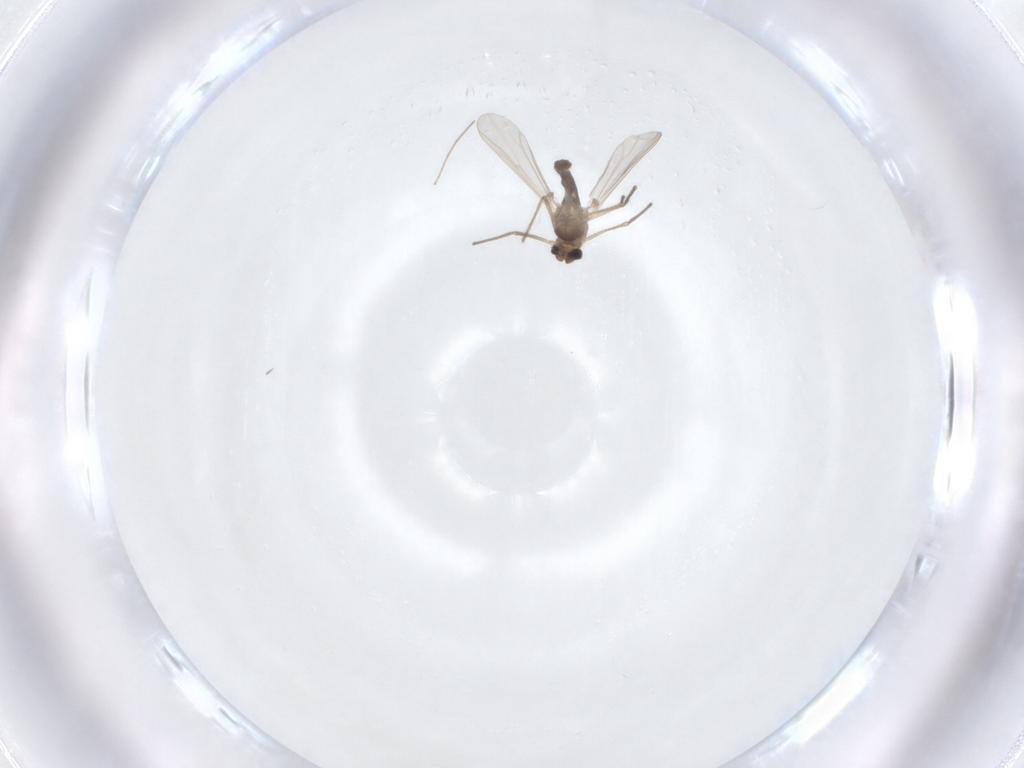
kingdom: Animalia
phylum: Arthropoda
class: Insecta
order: Diptera
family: Chironomidae
